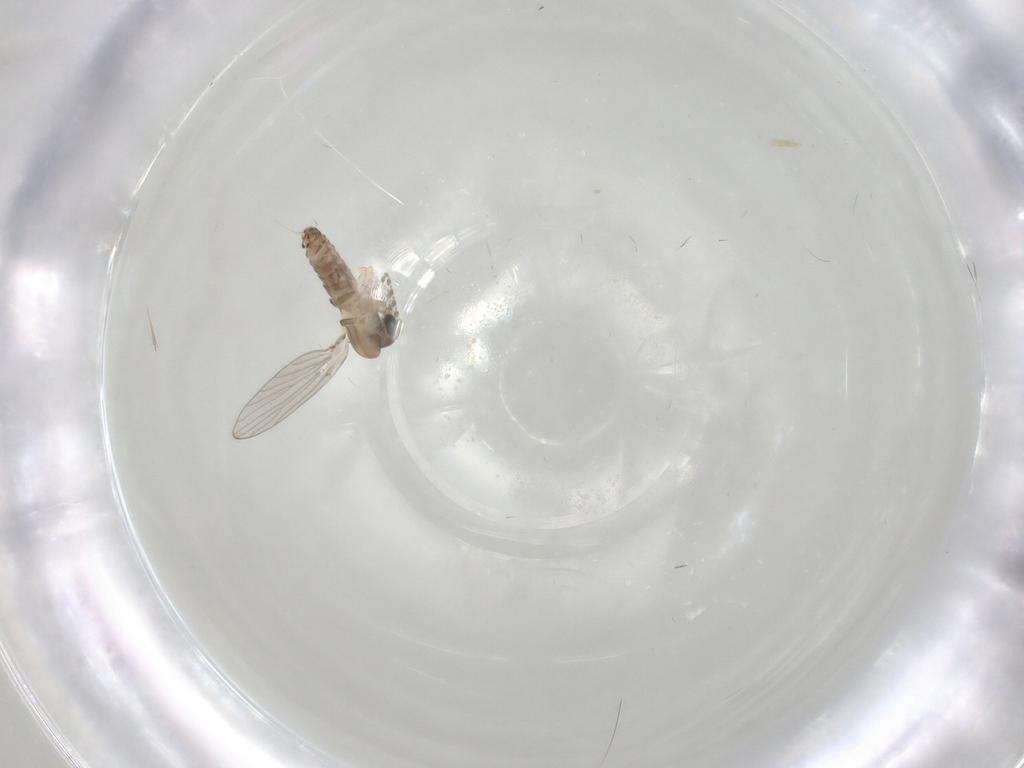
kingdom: Animalia
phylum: Arthropoda
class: Insecta
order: Diptera
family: Psychodidae
